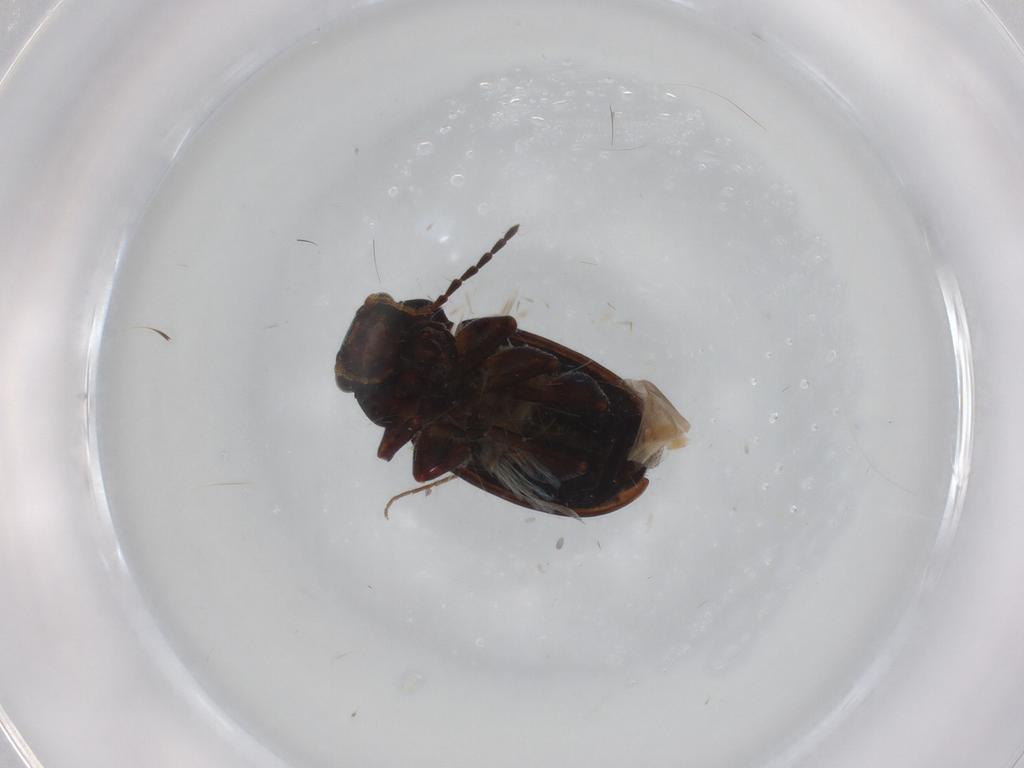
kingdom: Animalia
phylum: Arthropoda
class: Insecta
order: Coleoptera
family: Chrysomelidae
